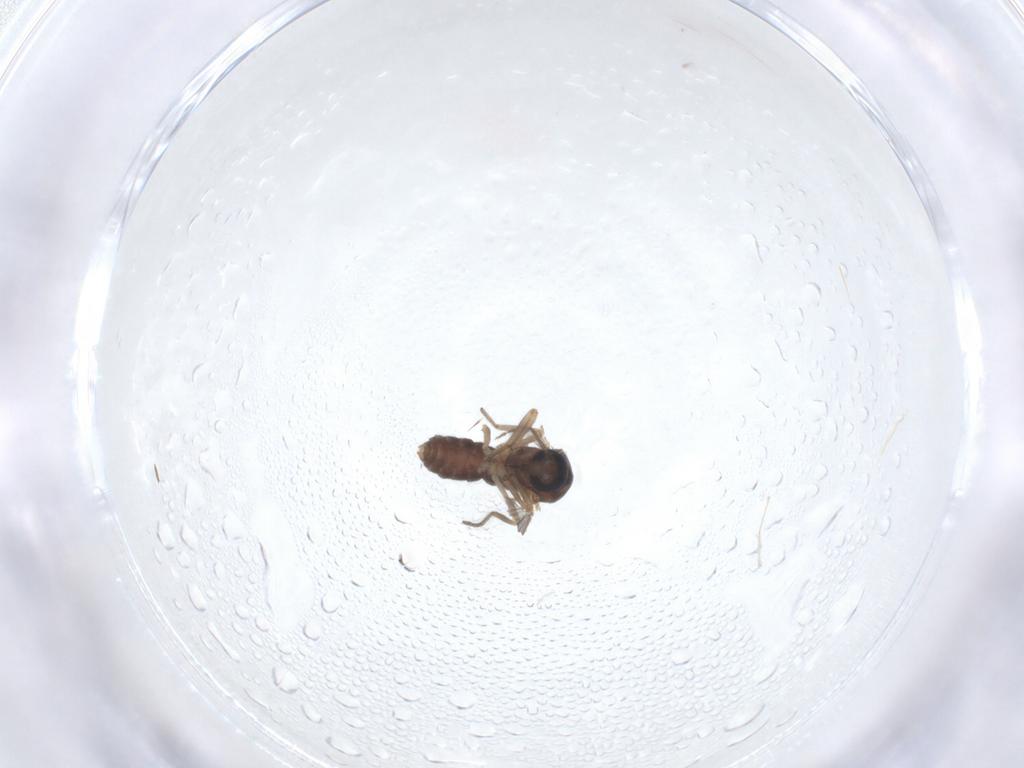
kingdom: Animalia
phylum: Arthropoda
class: Insecta
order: Diptera
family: Ceratopogonidae
